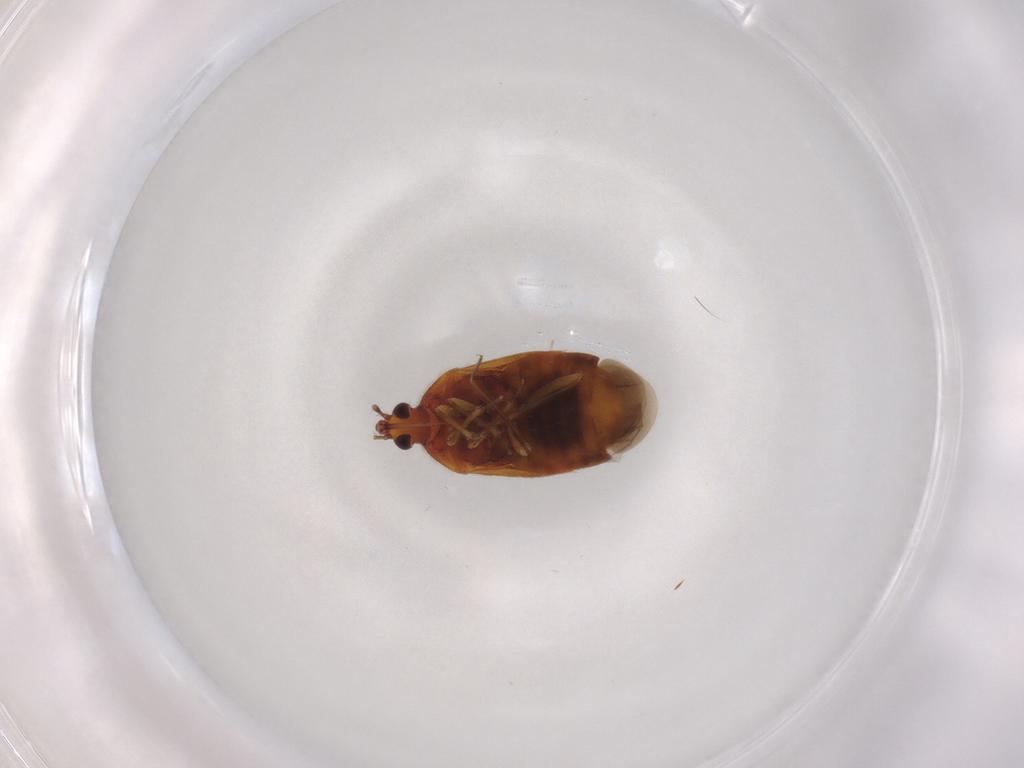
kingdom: Animalia
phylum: Arthropoda
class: Insecta
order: Hemiptera
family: Anthocoridae
